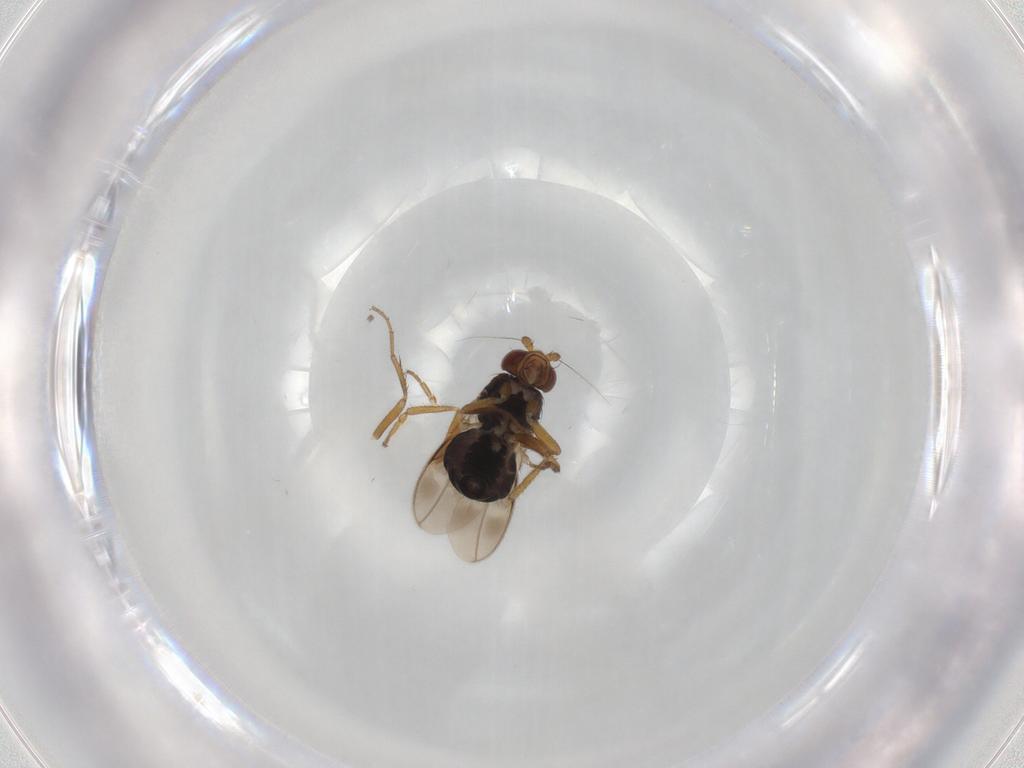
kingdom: Animalia
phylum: Arthropoda
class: Insecta
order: Diptera
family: Sphaeroceridae
